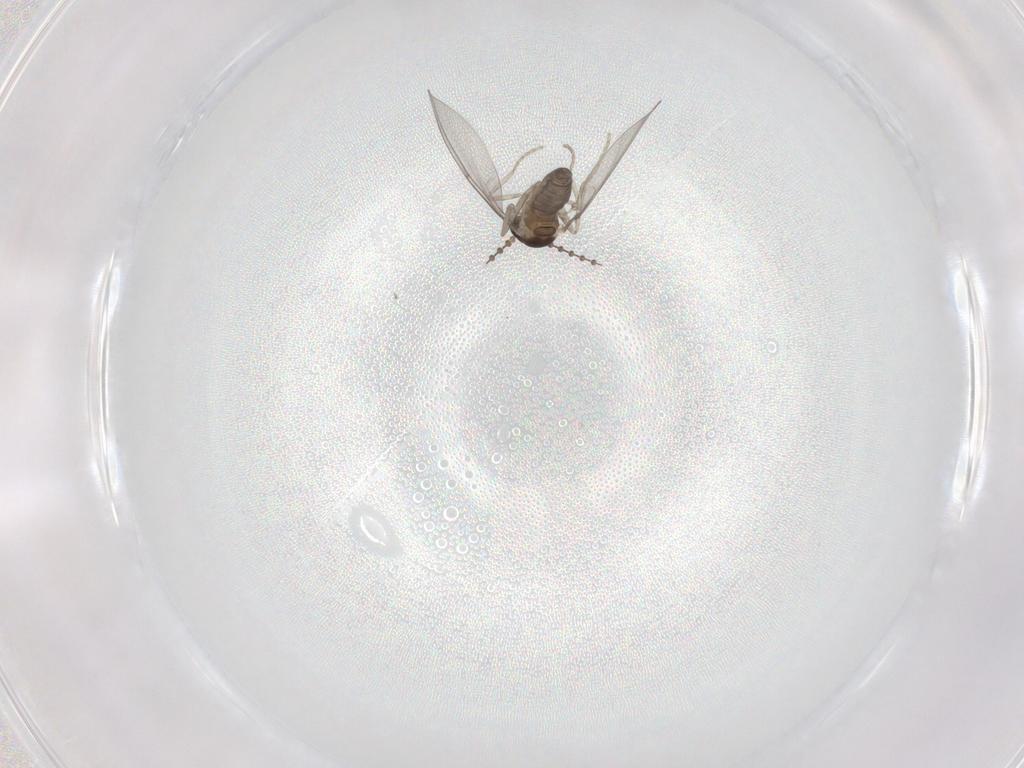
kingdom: Animalia
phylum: Arthropoda
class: Insecta
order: Diptera
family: Cecidomyiidae
